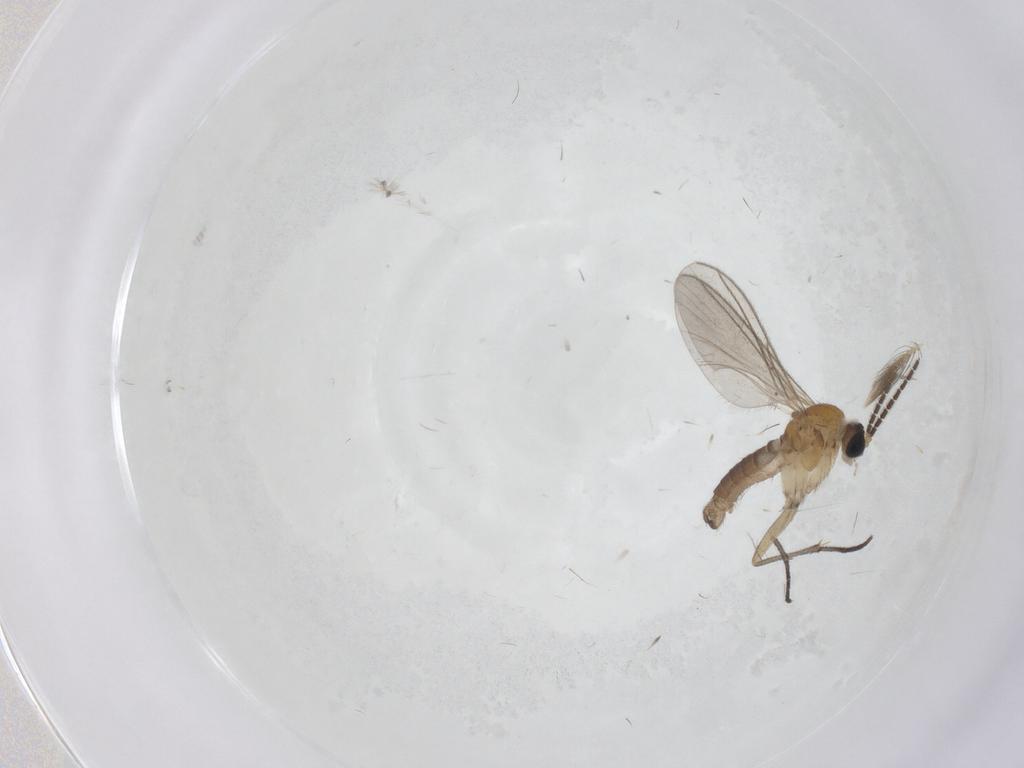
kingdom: Animalia
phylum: Arthropoda
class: Insecta
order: Diptera
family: Sciaridae
